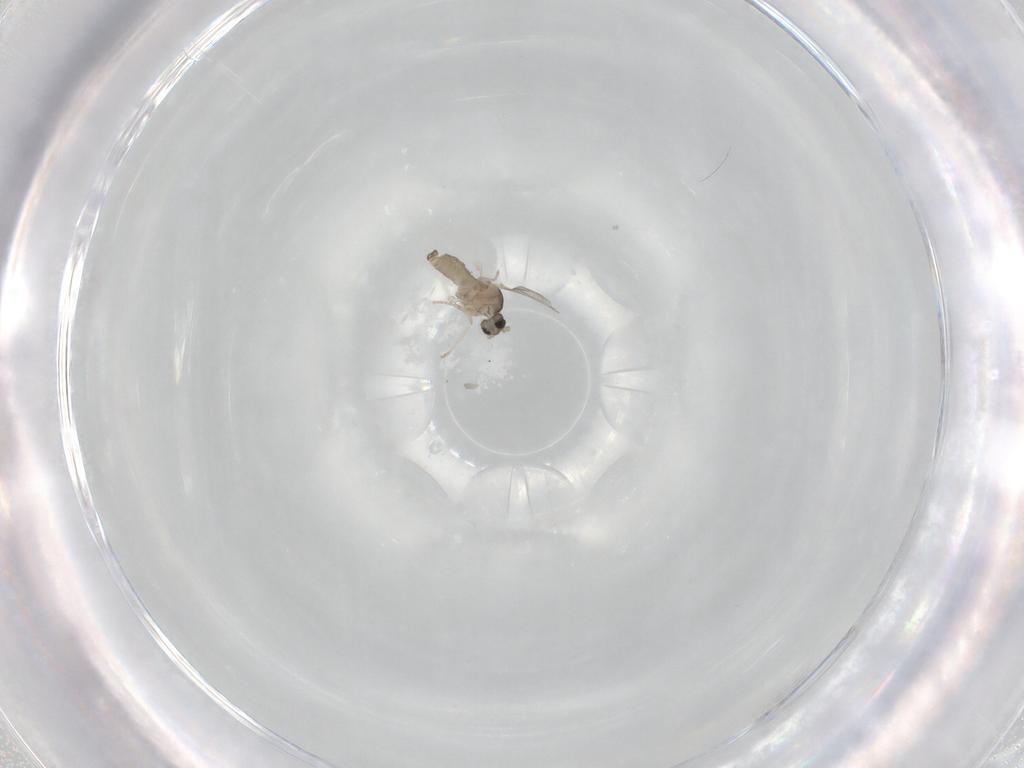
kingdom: Animalia
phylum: Arthropoda
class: Insecta
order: Diptera
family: Cecidomyiidae
